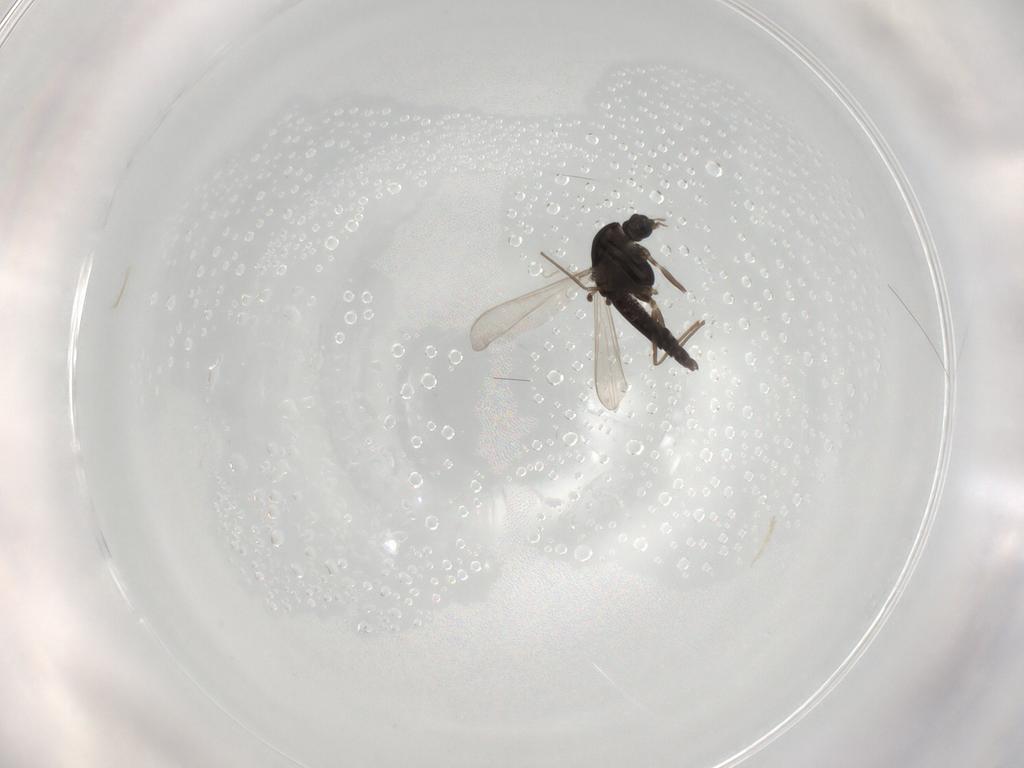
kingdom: Animalia
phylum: Arthropoda
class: Insecta
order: Diptera
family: Chironomidae
